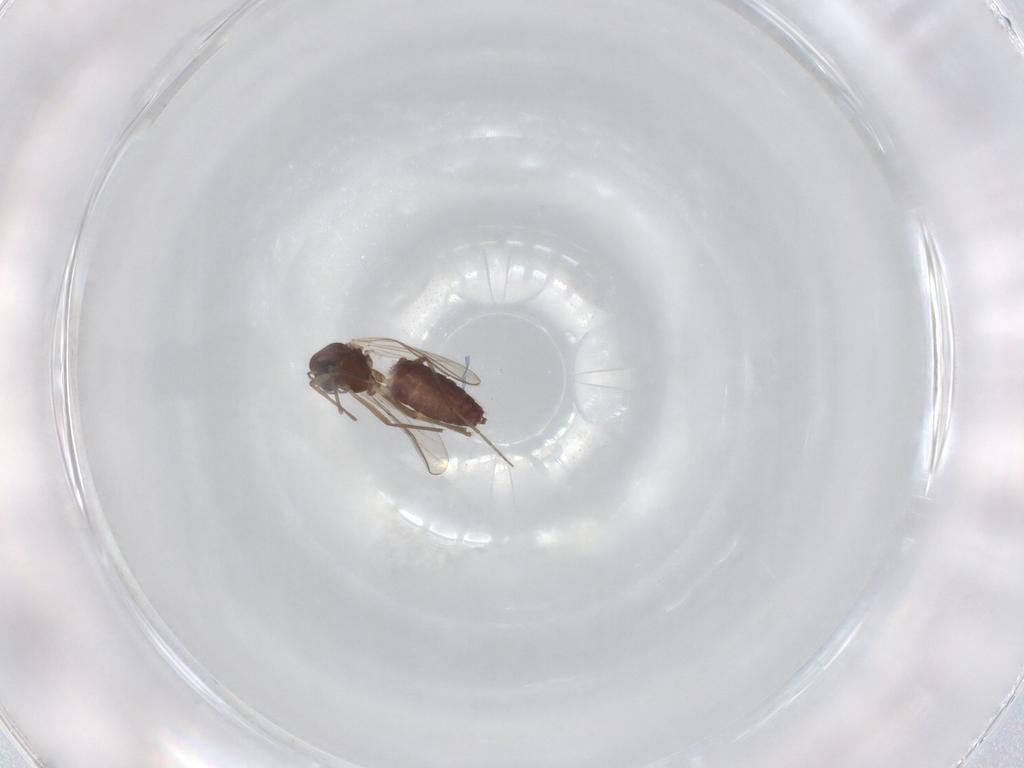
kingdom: Animalia
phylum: Arthropoda
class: Insecta
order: Diptera
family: Chironomidae
